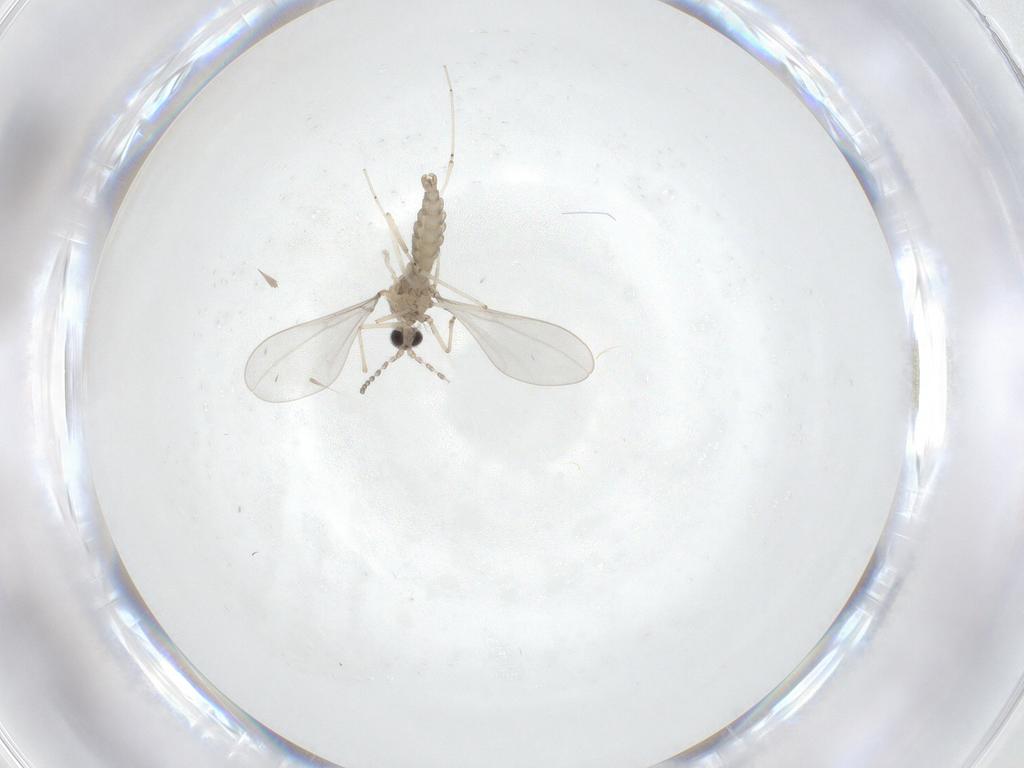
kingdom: Animalia
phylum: Arthropoda
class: Insecta
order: Diptera
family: Cecidomyiidae
